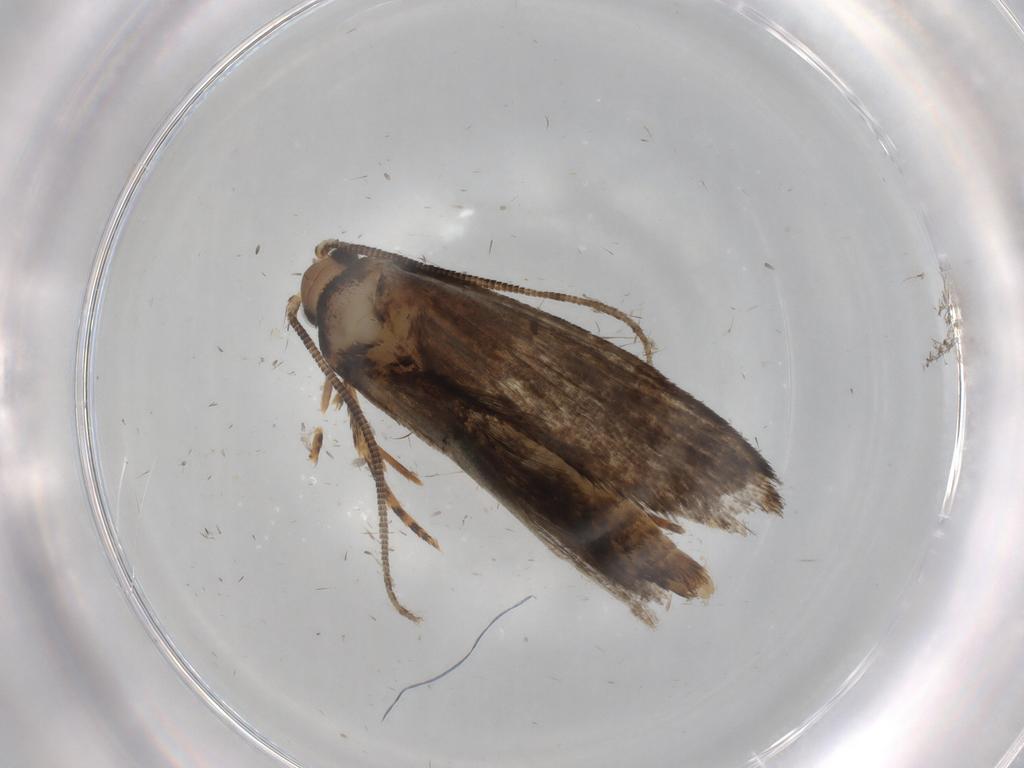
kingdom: Animalia
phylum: Arthropoda
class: Insecta
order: Lepidoptera
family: Tineidae
